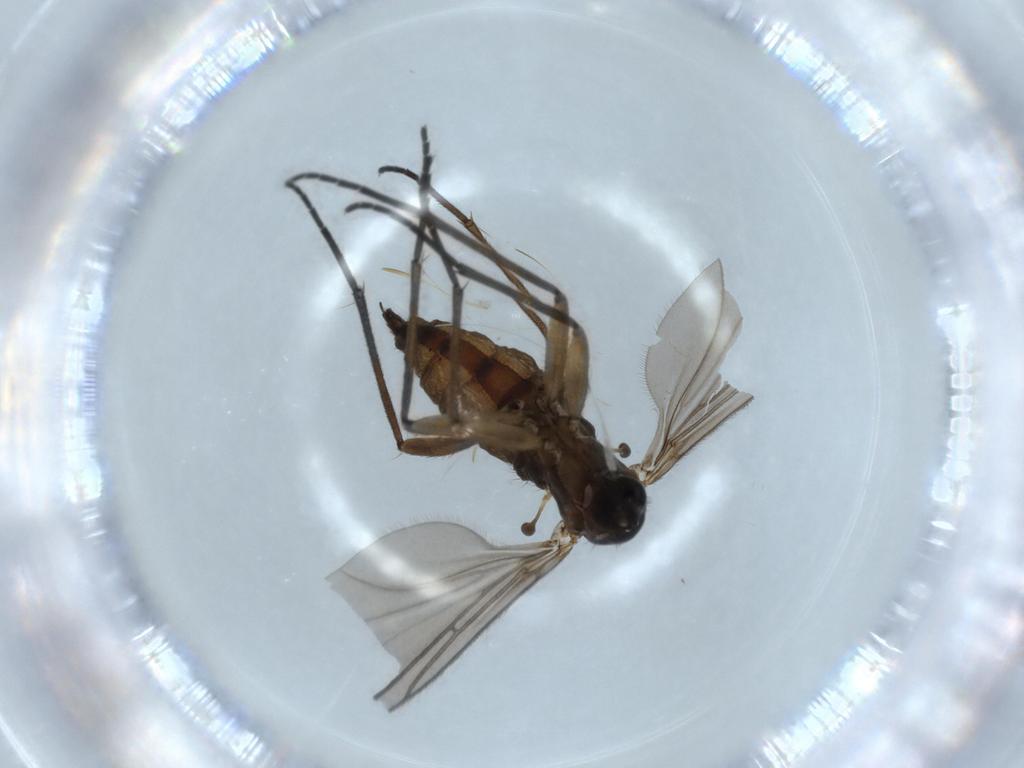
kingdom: Animalia
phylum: Arthropoda
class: Insecta
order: Diptera
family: Sciaridae
